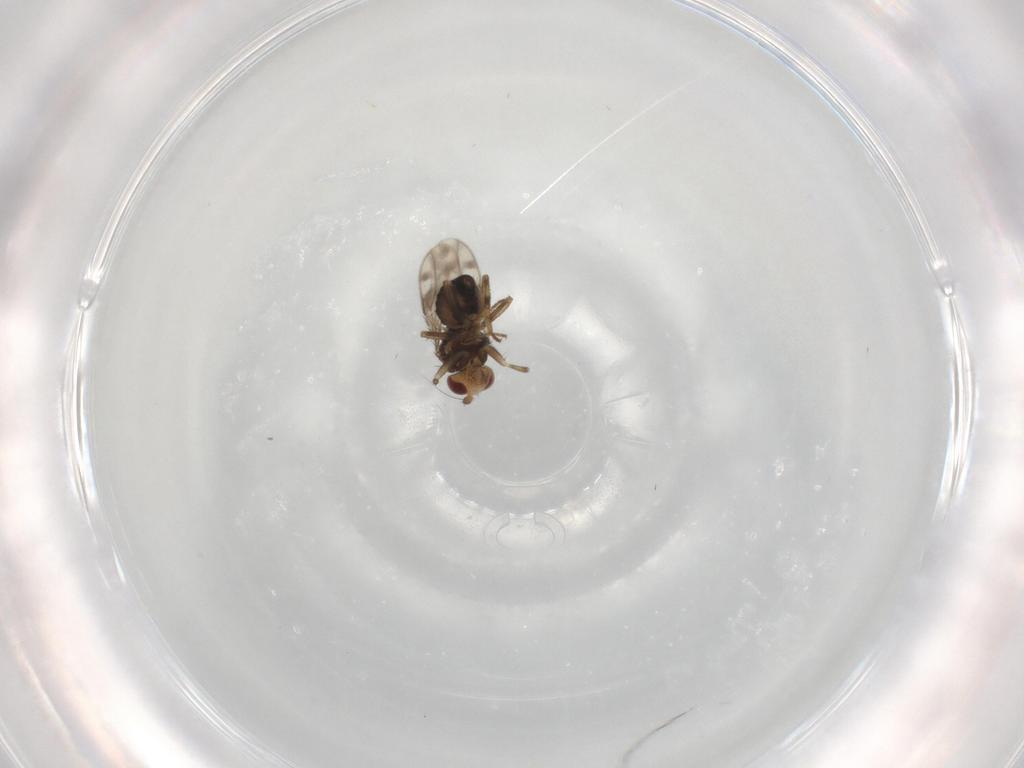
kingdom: Animalia
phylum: Arthropoda
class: Insecta
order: Diptera
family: Sphaeroceridae
